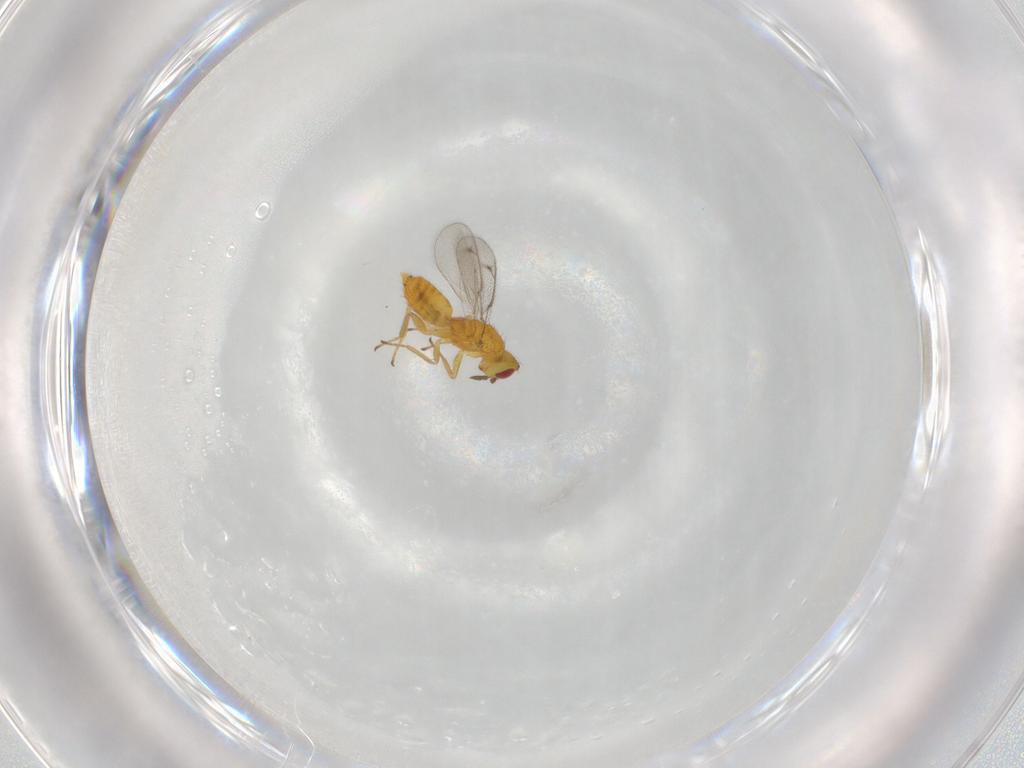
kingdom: Animalia
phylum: Arthropoda
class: Insecta
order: Hymenoptera
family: Eulophidae
